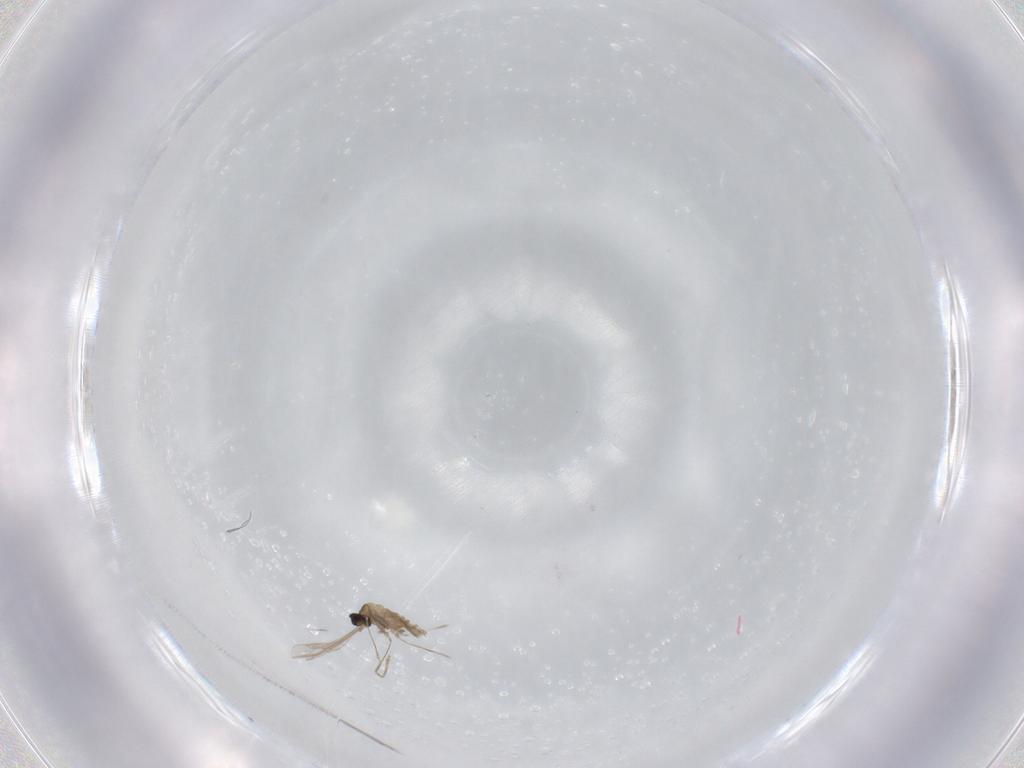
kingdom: Animalia
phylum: Arthropoda
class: Insecta
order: Diptera
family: Cecidomyiidae
